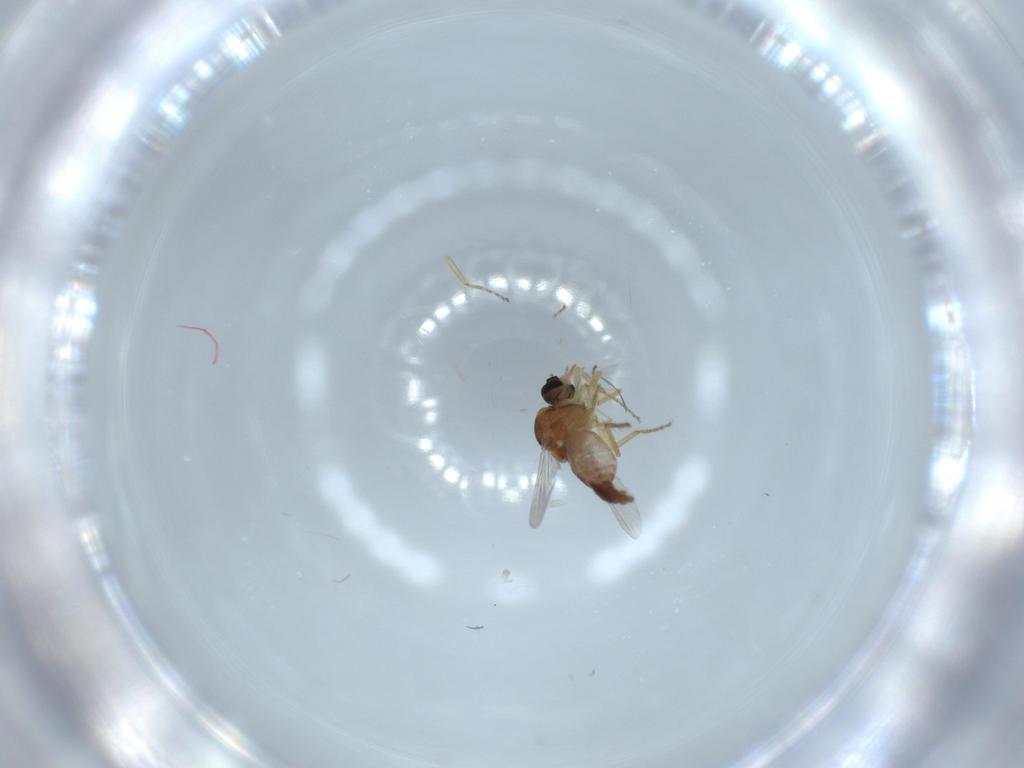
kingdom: Animalia
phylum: Arthropoda
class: Insecta
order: Diptera
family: Ceratopogonidae
